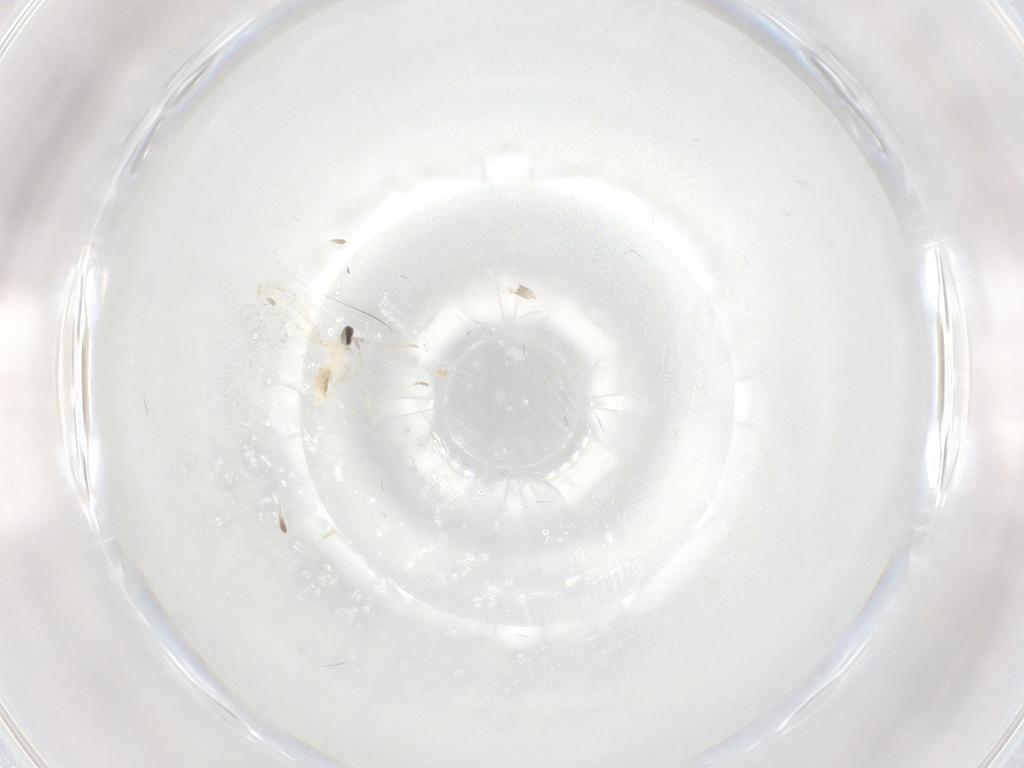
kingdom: Animalia
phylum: Arthropoda
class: Insecta
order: Diptera
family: Cecidomyiidae
